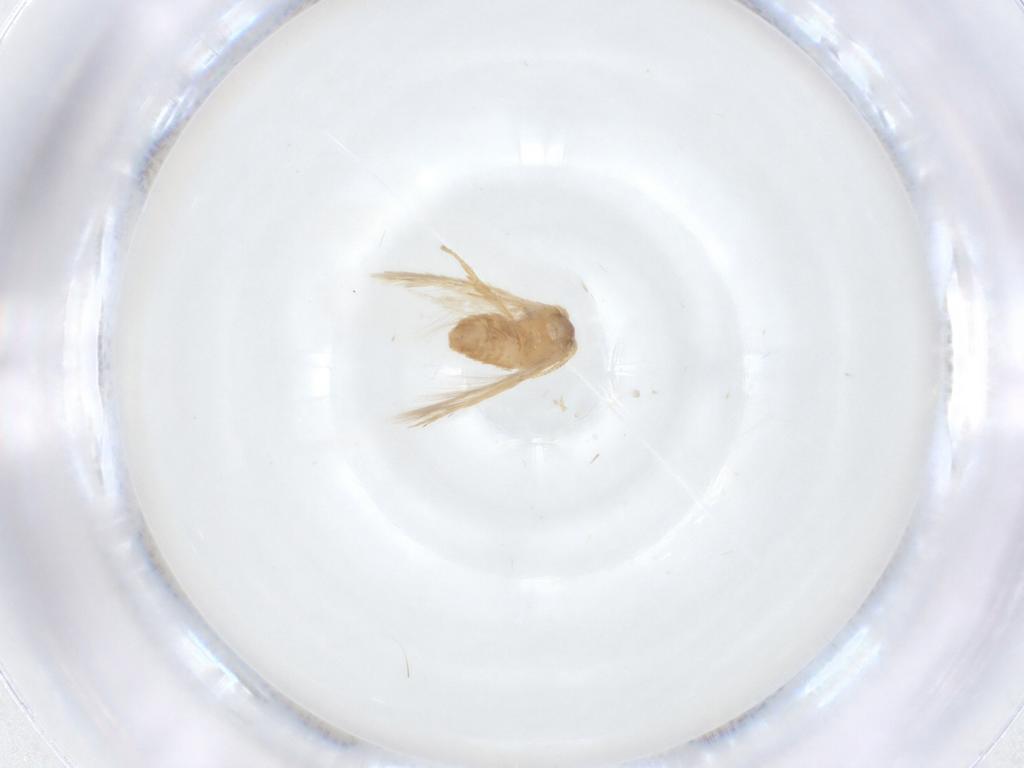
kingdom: Animalia
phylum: Arthropoda
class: Insecta
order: Lepidoptera
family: Nepticulidae
